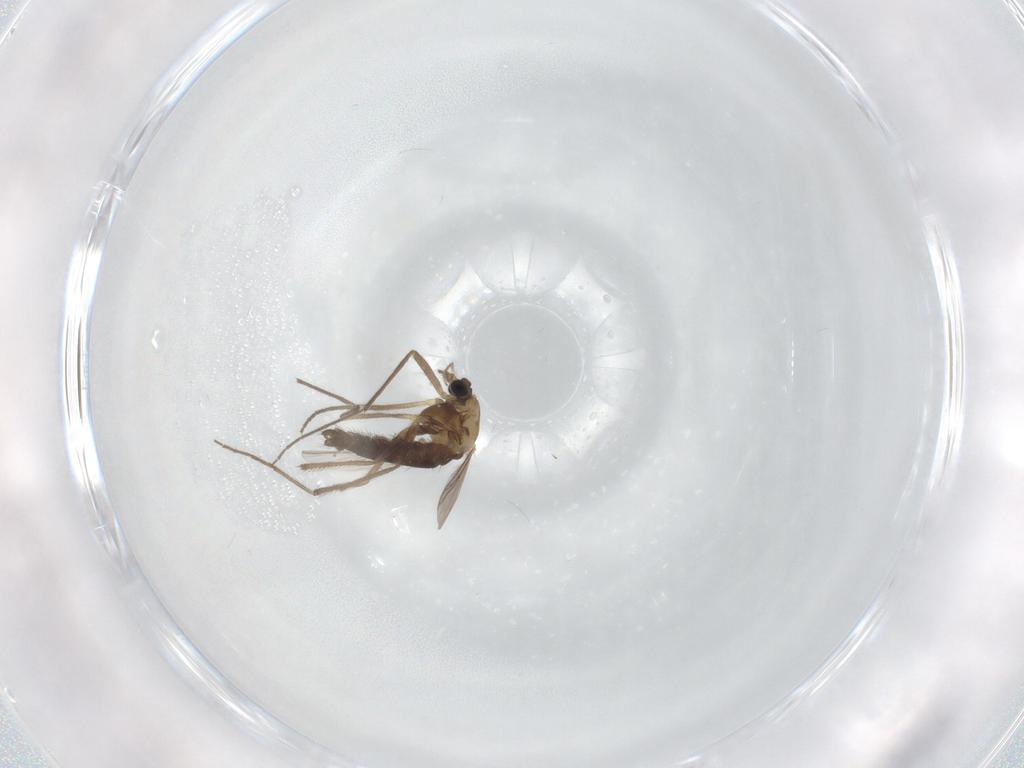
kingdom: Animalia
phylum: Arthropoda
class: Insecta
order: Diptera
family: Chironomidae
